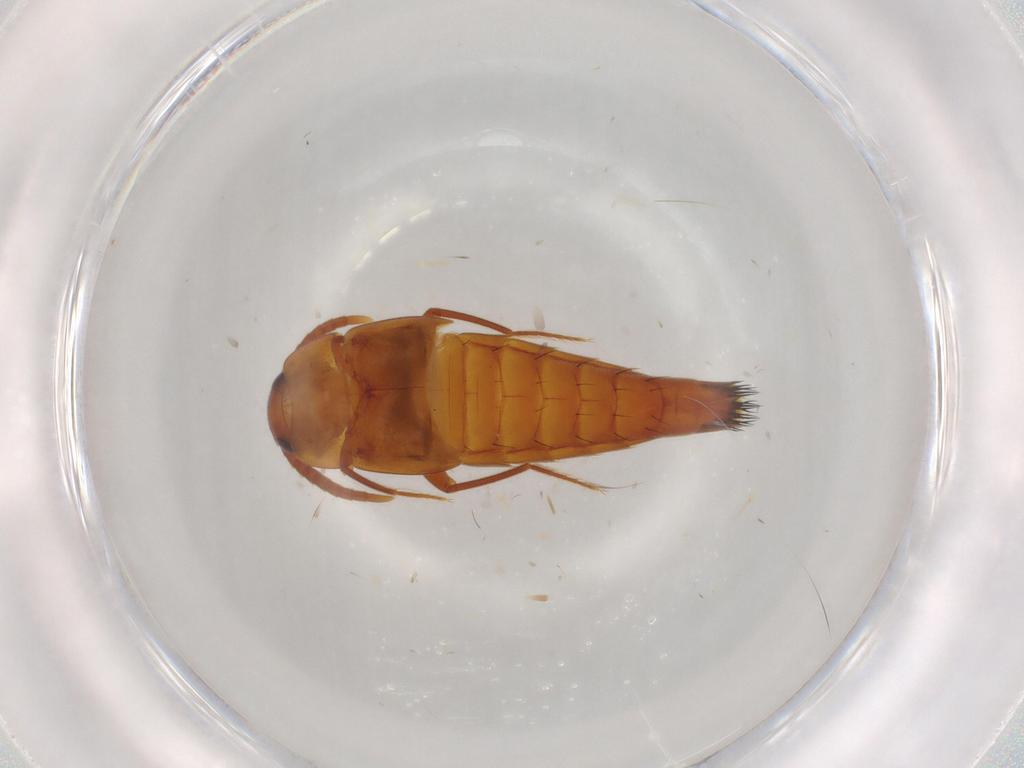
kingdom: Animalia
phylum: Arthropoda
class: Insecta
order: Coleoptera
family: Staphylinidae
